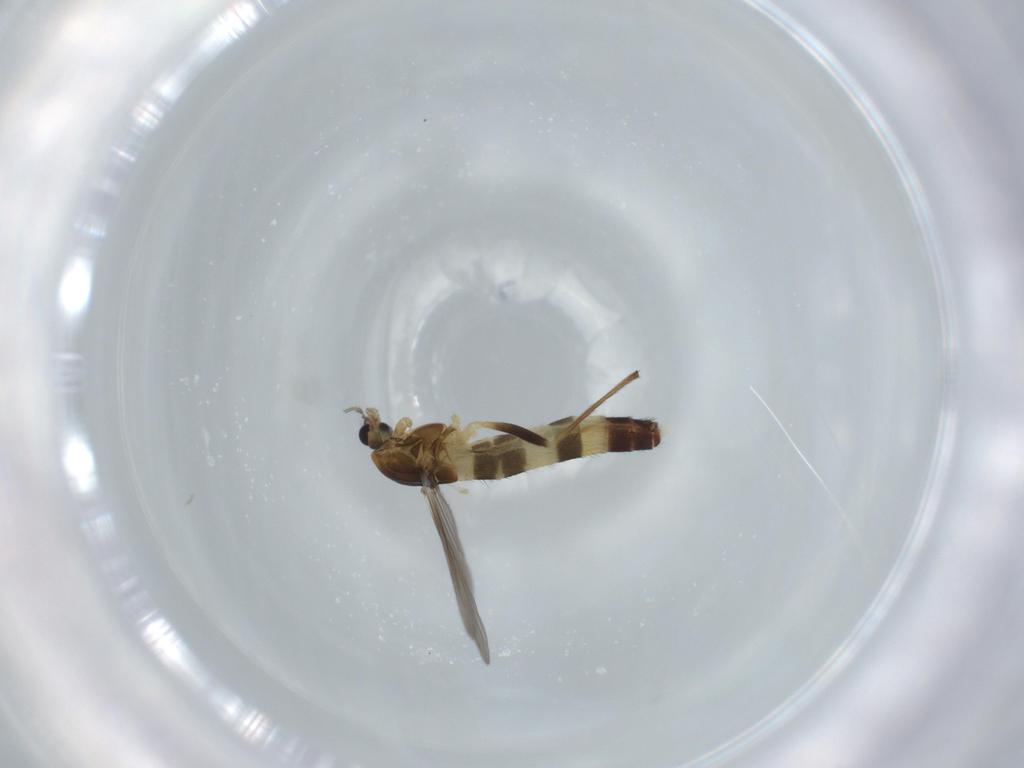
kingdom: Animalia
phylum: Arthropoda
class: Insecta
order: Diptera
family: Chironomidae
